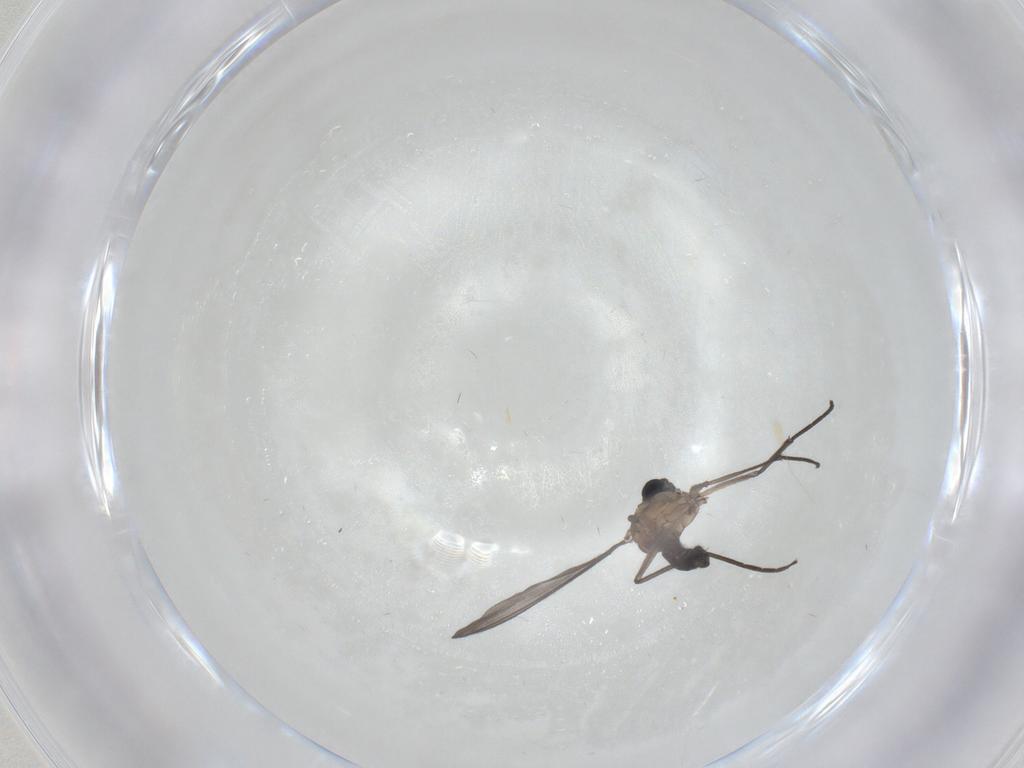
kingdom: Animalia
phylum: Arthropoda
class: Insecta
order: Diptera
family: Sciaridae
